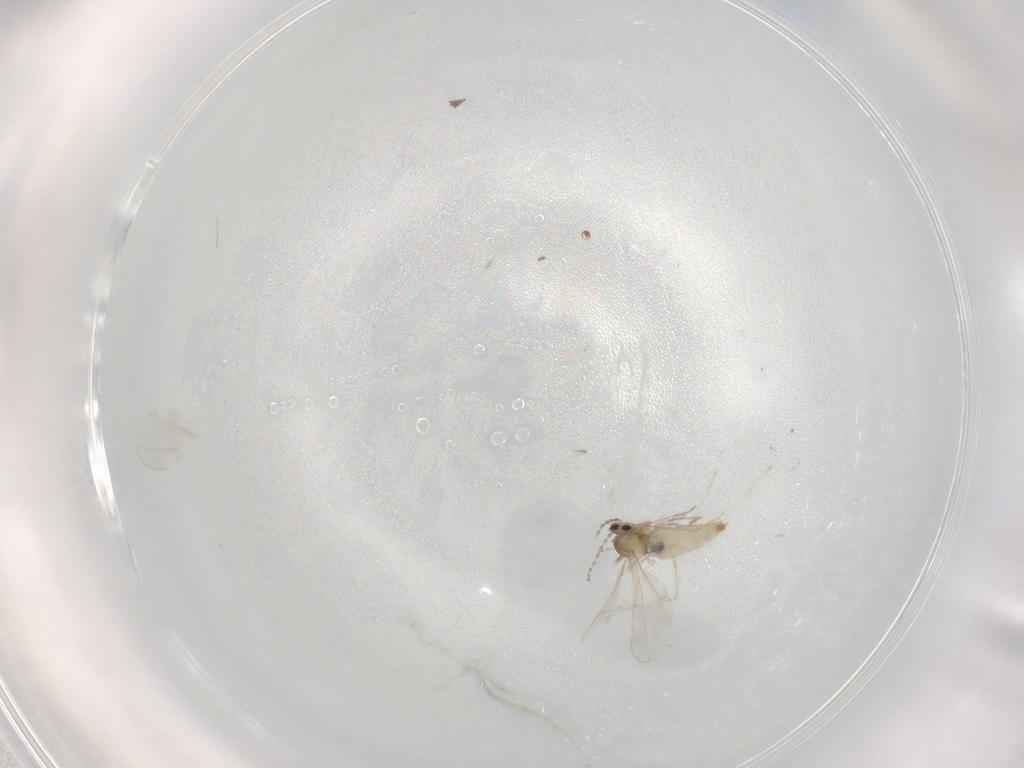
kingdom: Animalia
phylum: Arthropoda
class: Insecta
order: Diptera
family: Cecidomyiidae
